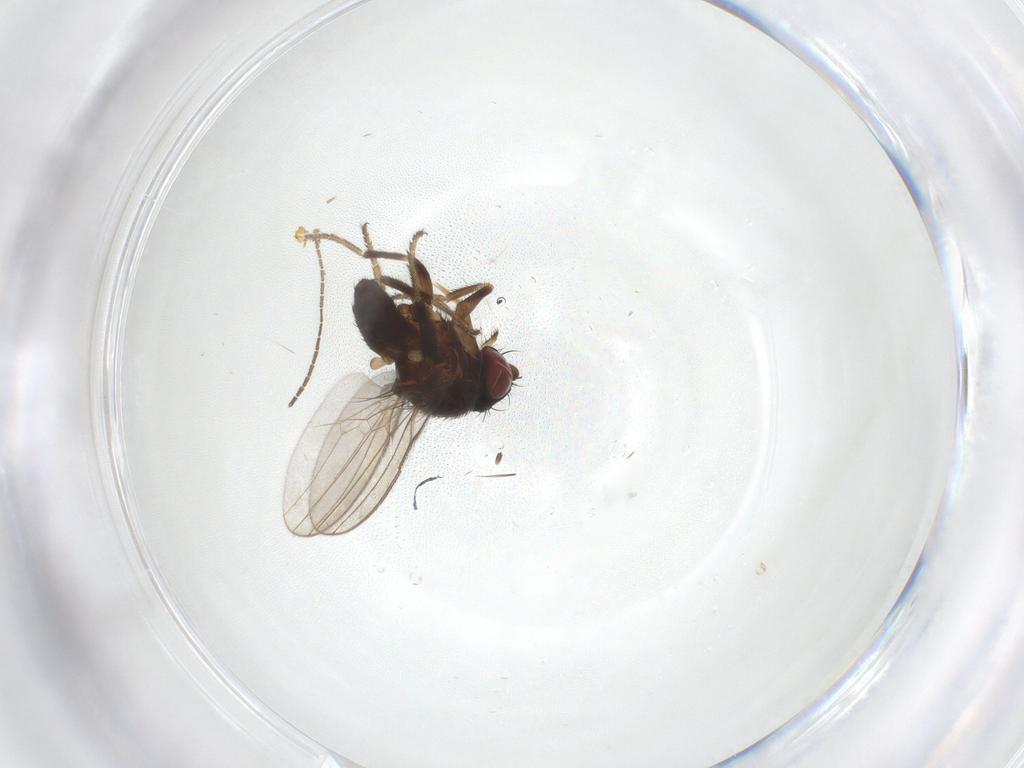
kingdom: Animalia
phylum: Arthropoda
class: Insecta
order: Diptera
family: Milichiidae
